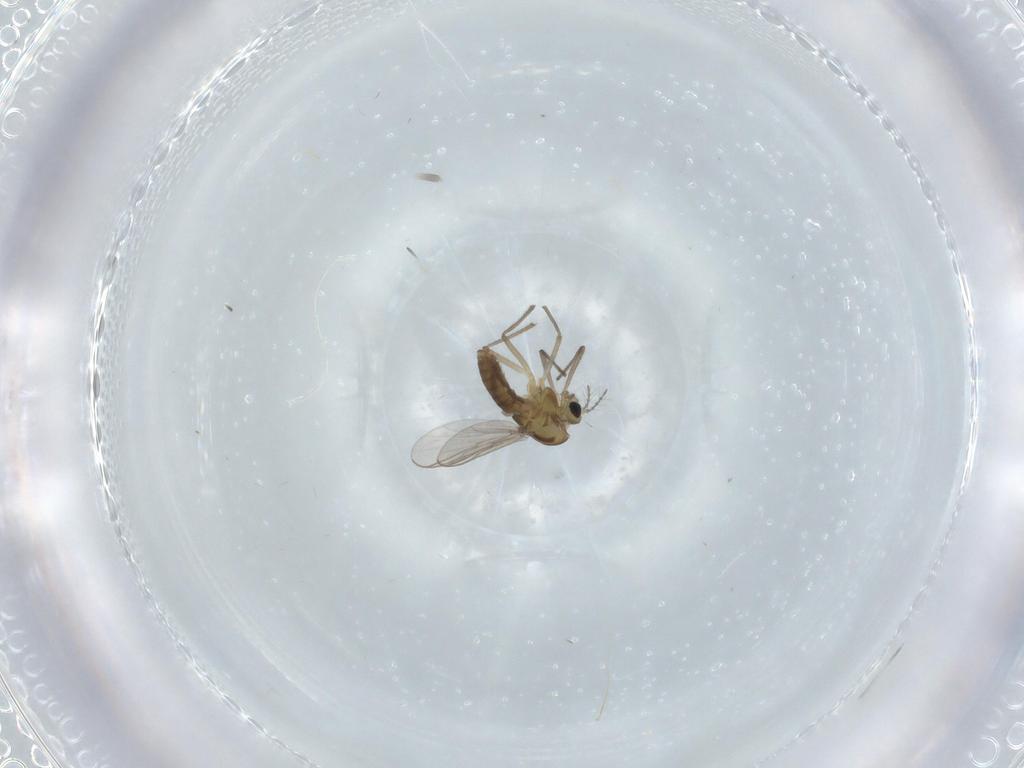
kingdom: Animalia
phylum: Arthropoda
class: Insecta
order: Diptera
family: Chironomidae
